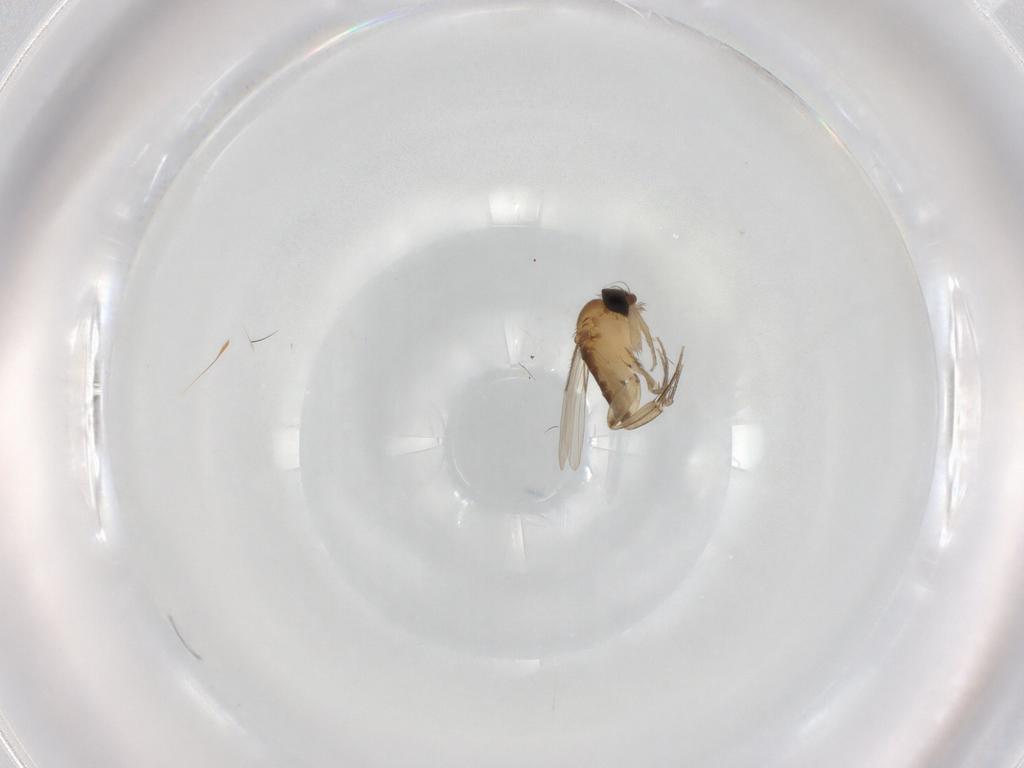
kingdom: Animalia
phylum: Arthropoda
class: Insecta
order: Diptera
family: Phoridae
